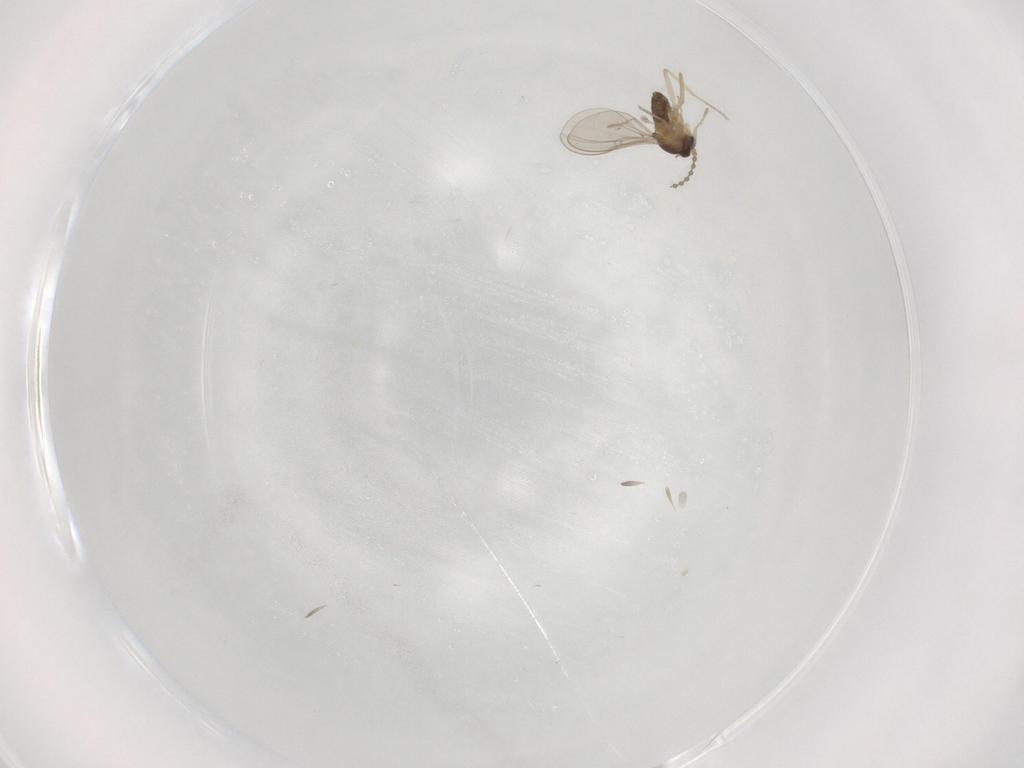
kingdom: Animalia
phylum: Arthropoda
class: Insecta
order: Diptera
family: Cecidomyiidae
